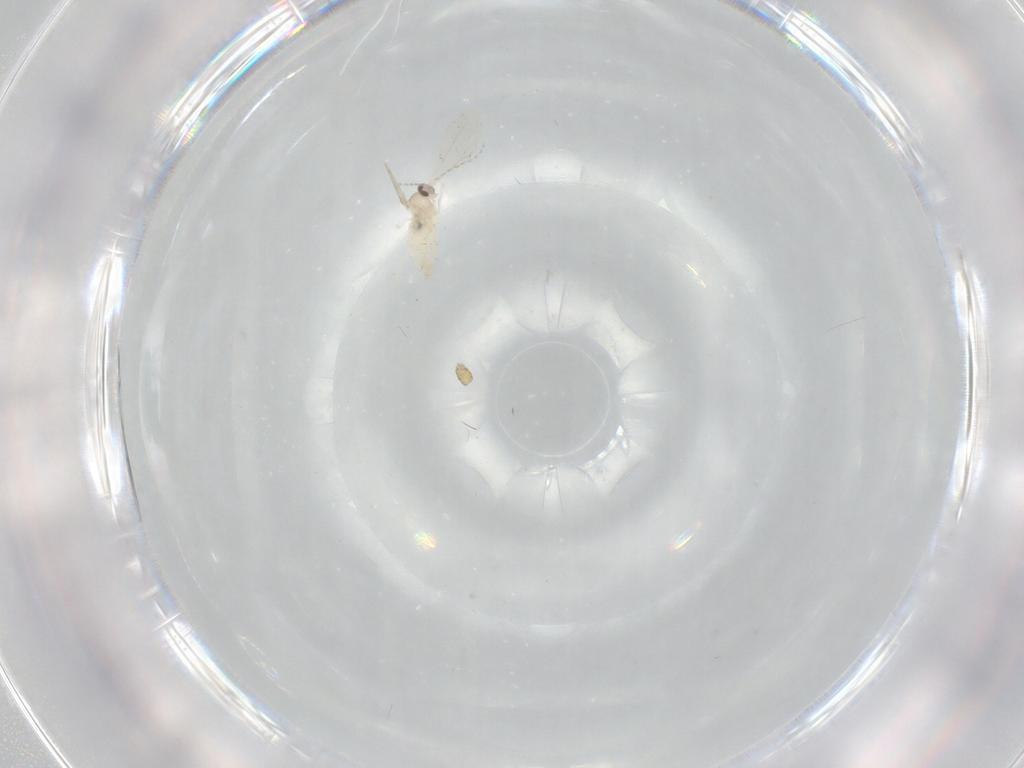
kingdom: Animalia
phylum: Arthropoda
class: Insecta
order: Diptera
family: Cecidomyiidae
